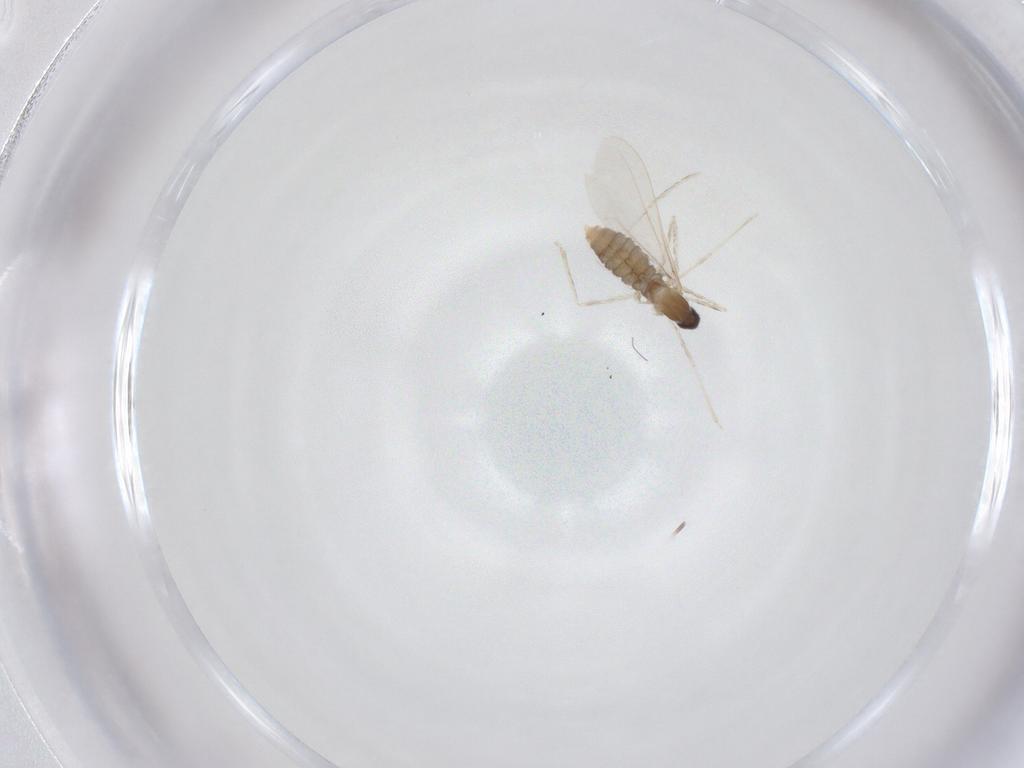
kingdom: Animalia
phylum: Arthropoda
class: Insecta
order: Diptera
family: Cecidomyiidae
